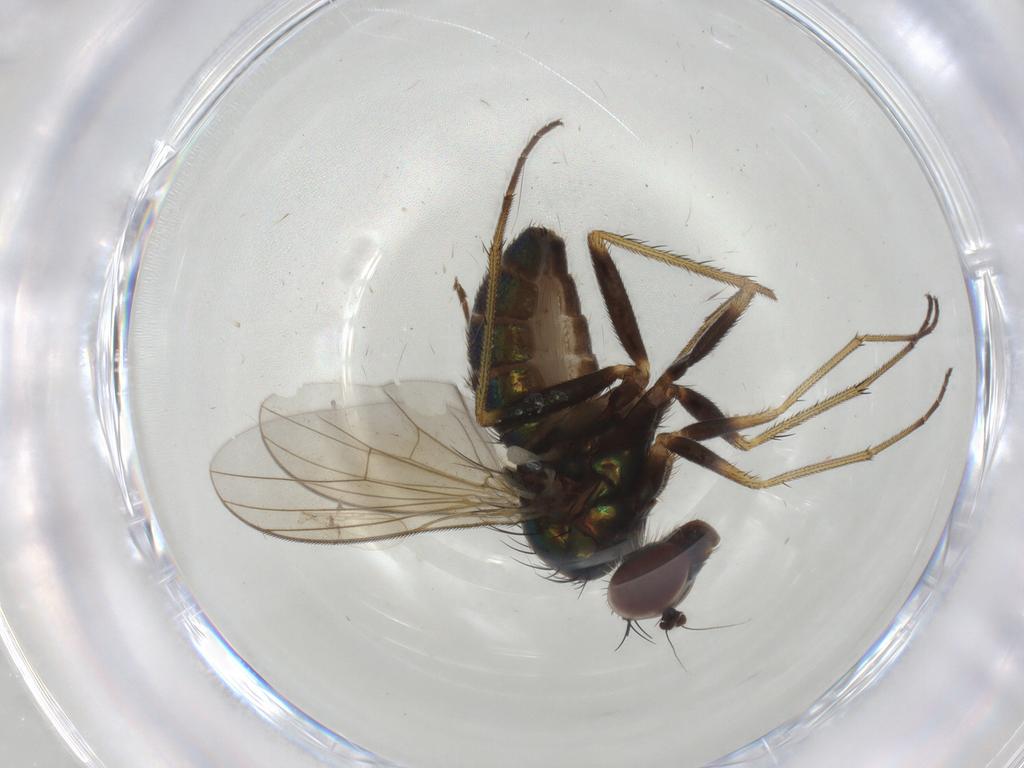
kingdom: Animalia
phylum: Arthropoda
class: Insecta
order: Diptera
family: Dolichopodidae
